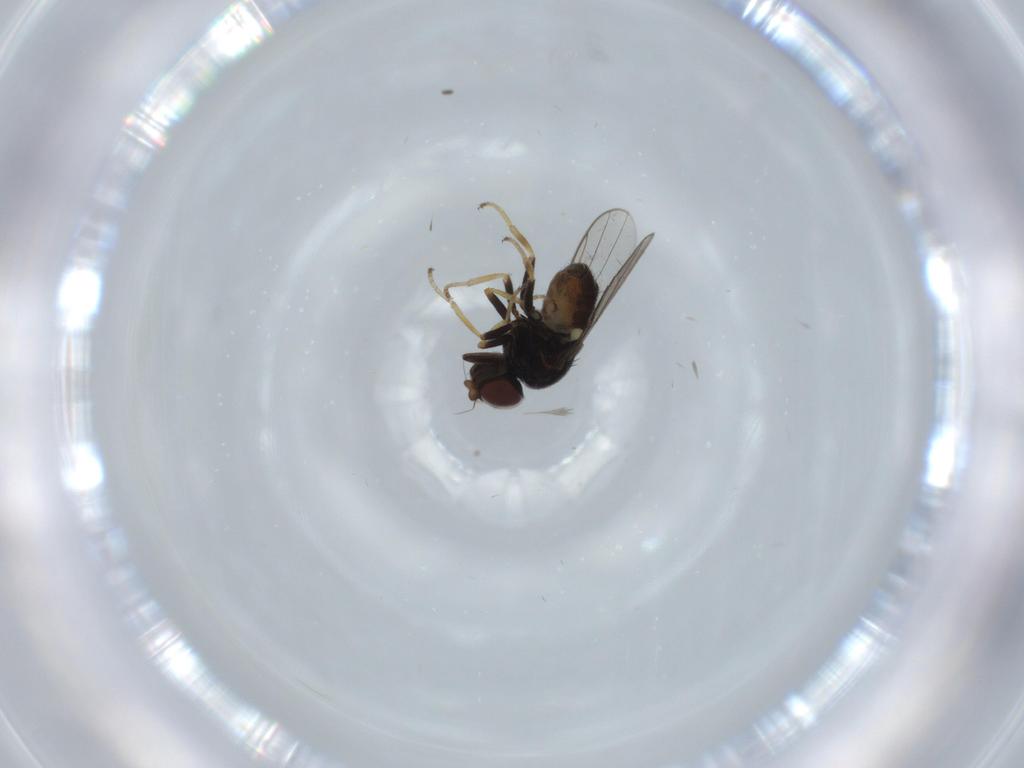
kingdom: Animalia
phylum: Arthropoda
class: Insecta
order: Diptera
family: Chloropidae
